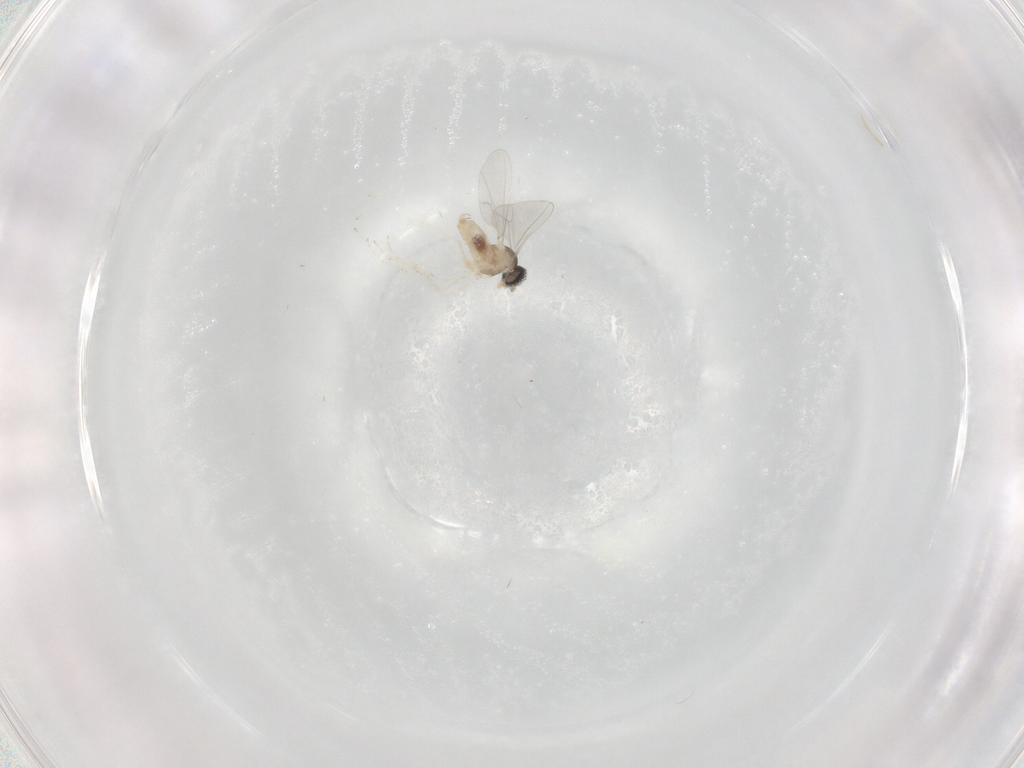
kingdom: Animalia
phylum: Arthropoda
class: Insecta
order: Diptera
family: Cecidomyiidae
